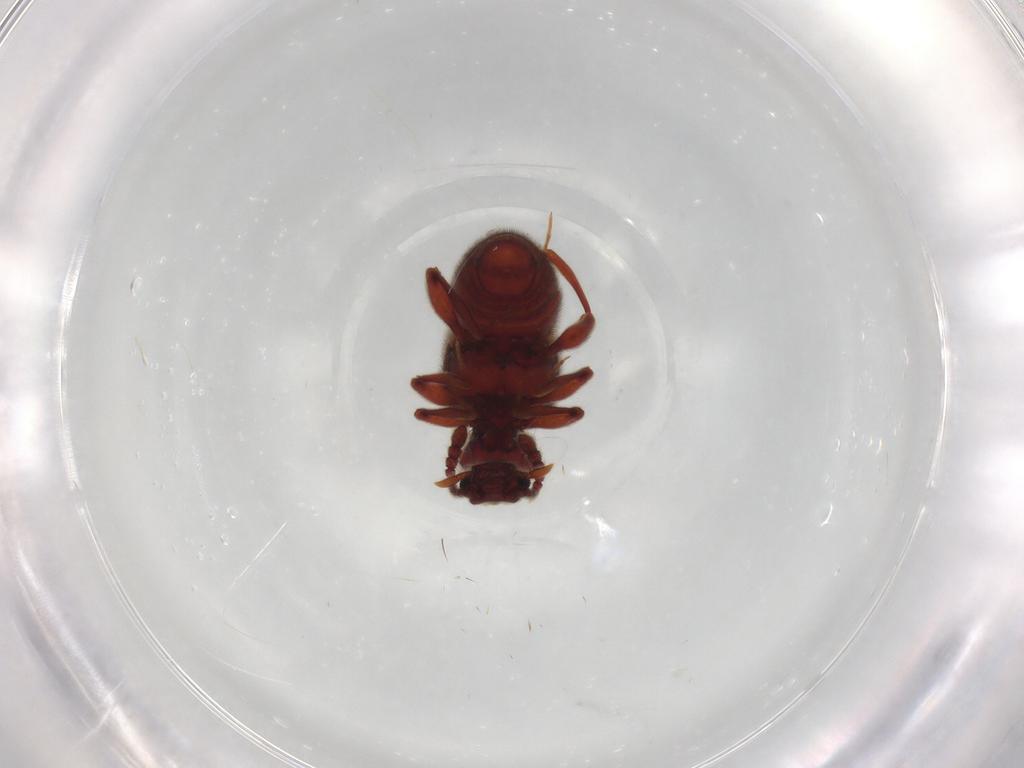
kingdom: Animalia
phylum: Arthropoda
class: Insecta
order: Coleoptera
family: Staphylinidae
